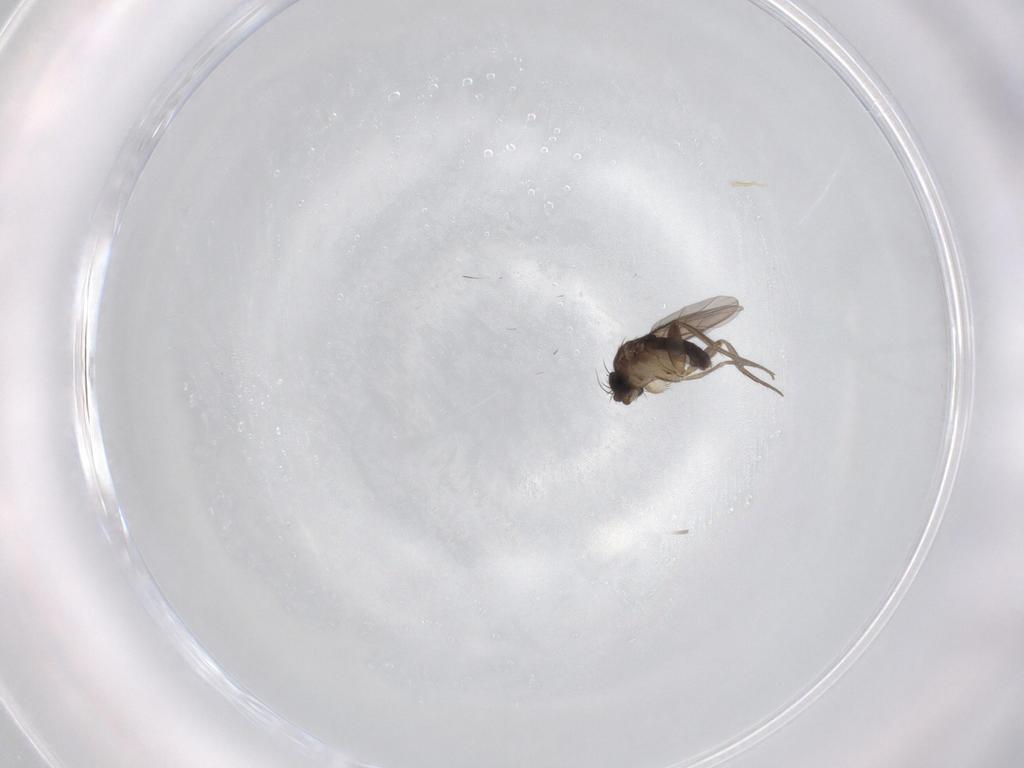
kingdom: Animalia
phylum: Arthropoda
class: Insecta
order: Diptera
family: Phoridae
